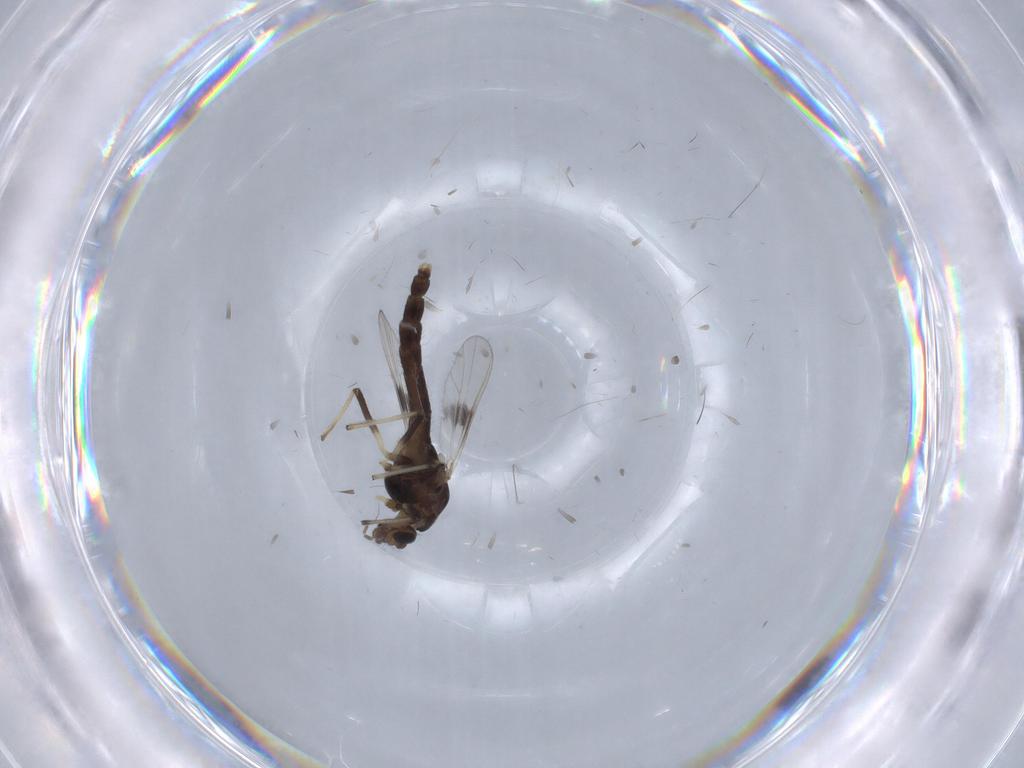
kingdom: Animalia
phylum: Arthropoda
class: Insecta
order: Diptera
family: Chironomidae
